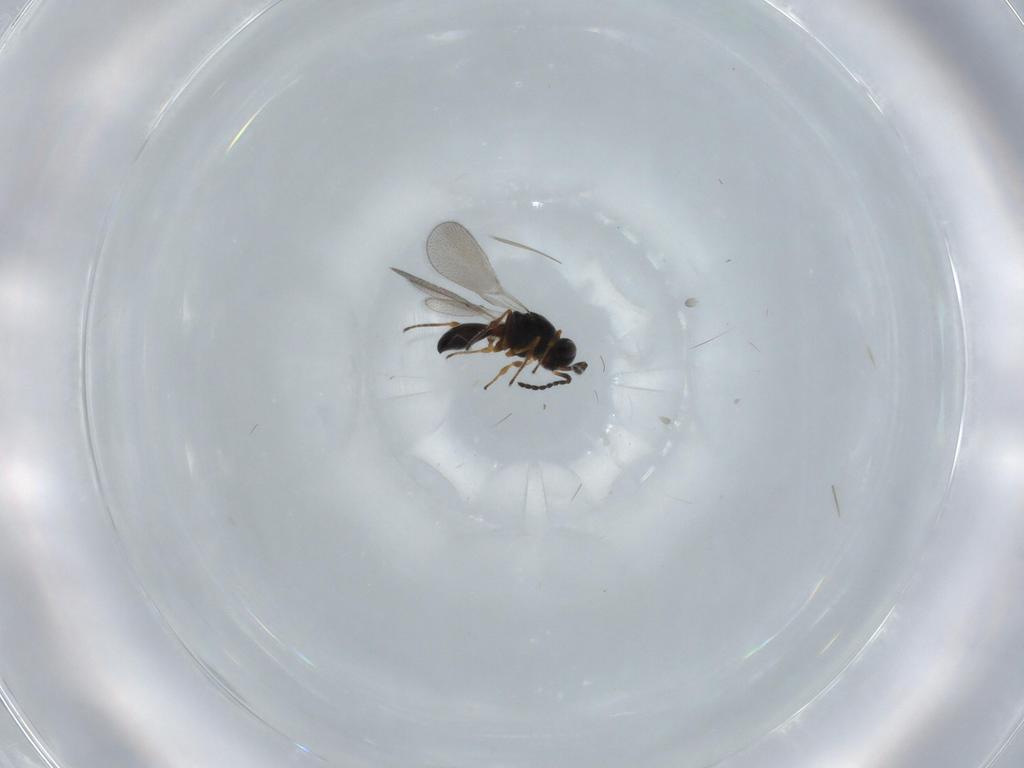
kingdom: Animalia
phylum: Arthropoda
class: Insecta
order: Hymenoptera
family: Platygastridae
